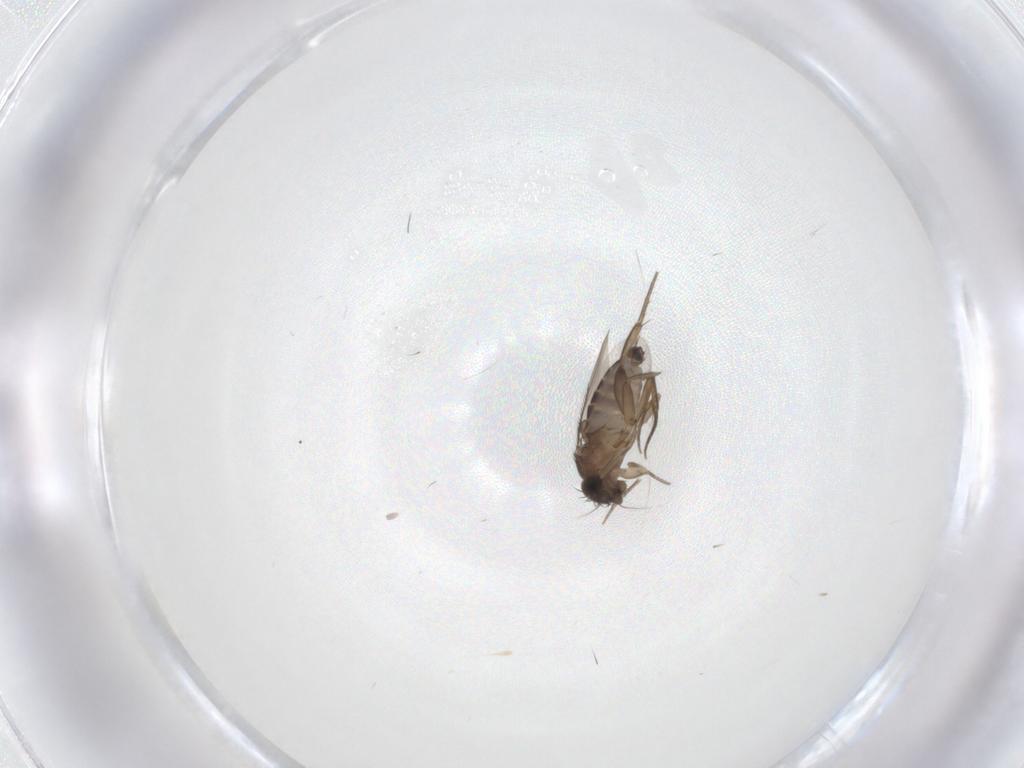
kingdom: Animalia
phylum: Arthropoda
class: Insecta
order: Diptera
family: Phoridae
